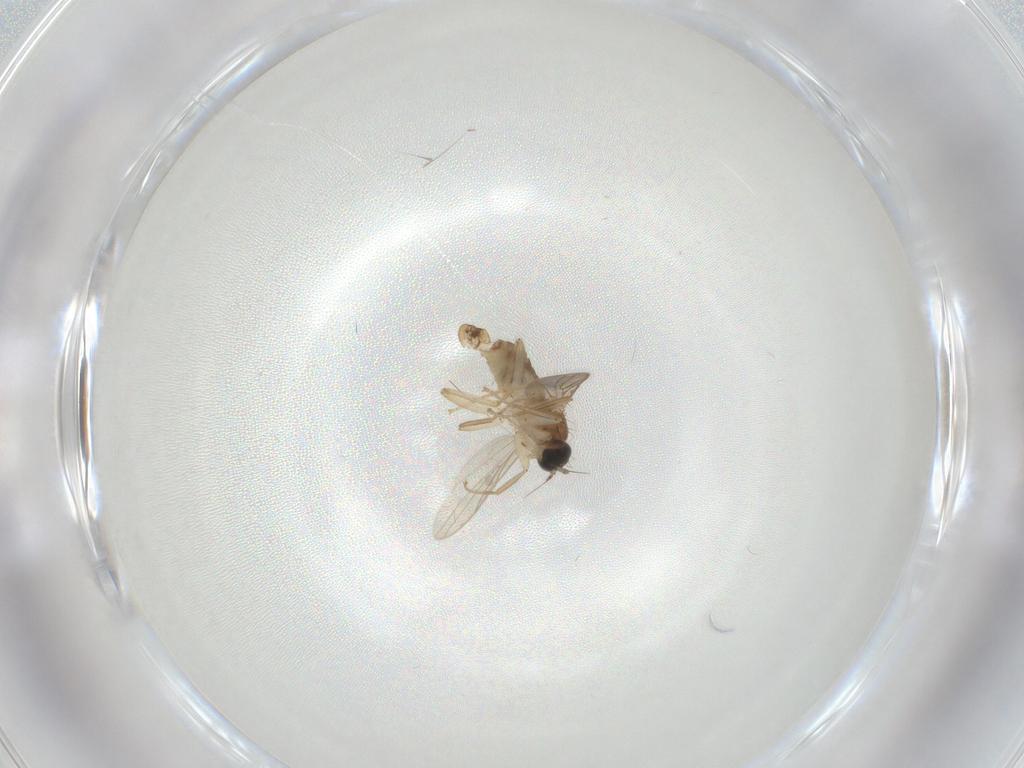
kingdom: Animalia
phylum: Arthropoda
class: Insecta
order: Diptera
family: Hybotidae
